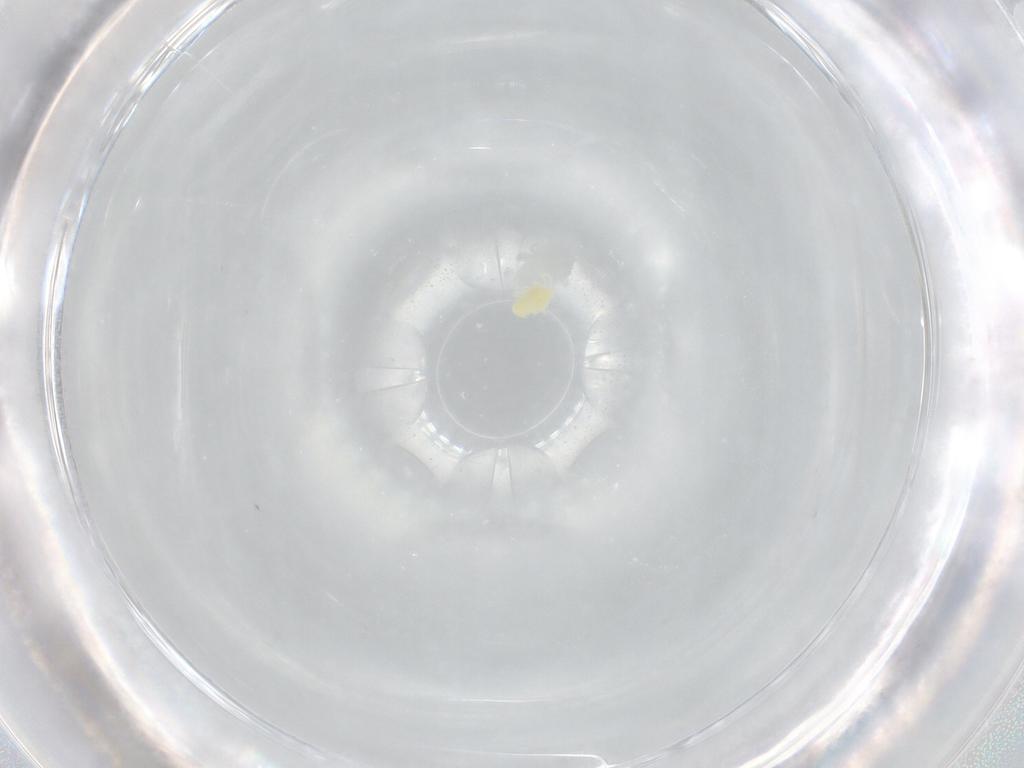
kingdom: Animalia
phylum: Arthropoda
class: Arachnida
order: Trombidiformes
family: Eupodidae
